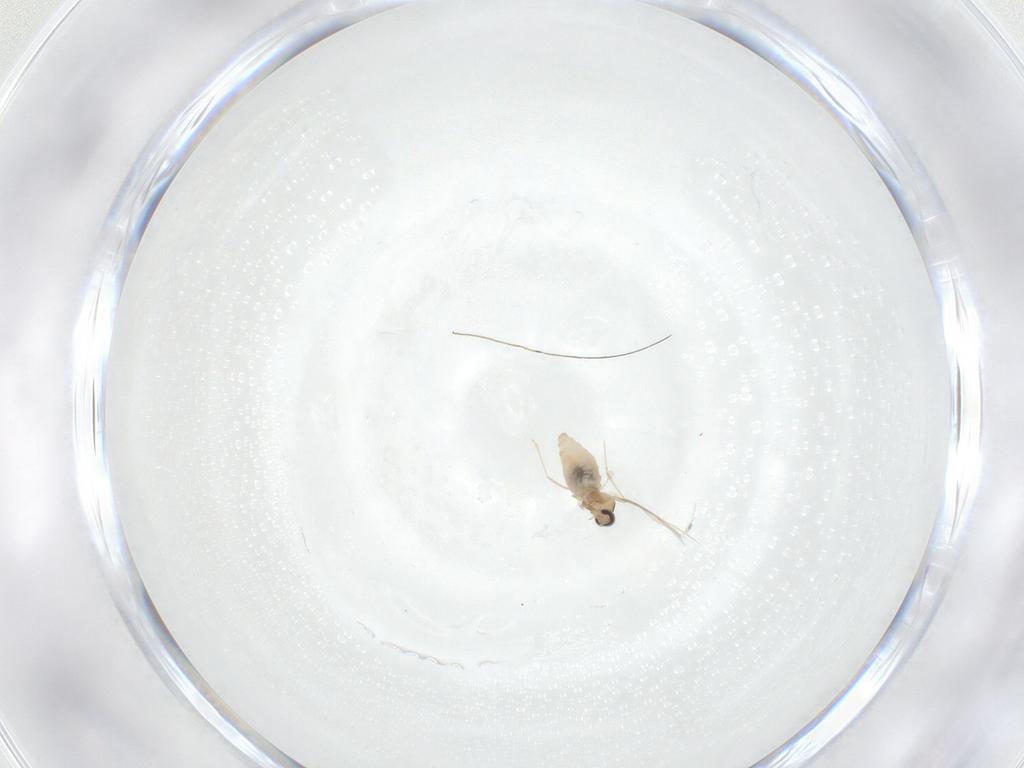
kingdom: Animalia
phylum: Arthropoda
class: Insecta
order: Diptera
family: Cecidomyiidae
